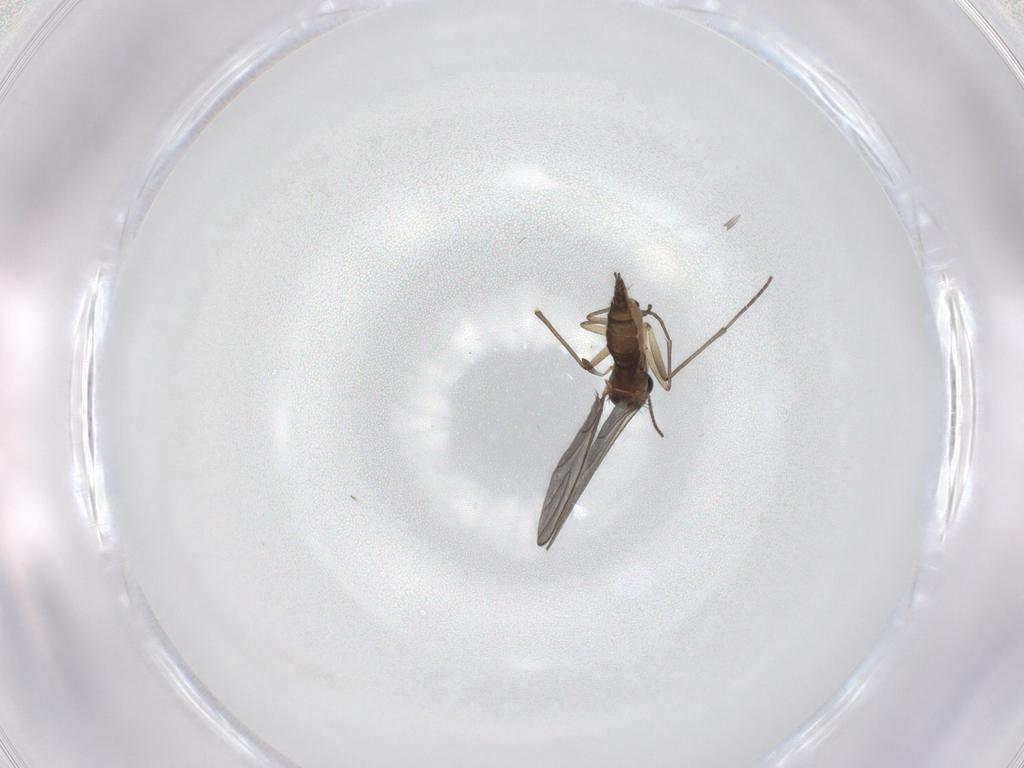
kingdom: Animalia
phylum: Arthropoda
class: Insecta
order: Diptera
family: Sciaridae
